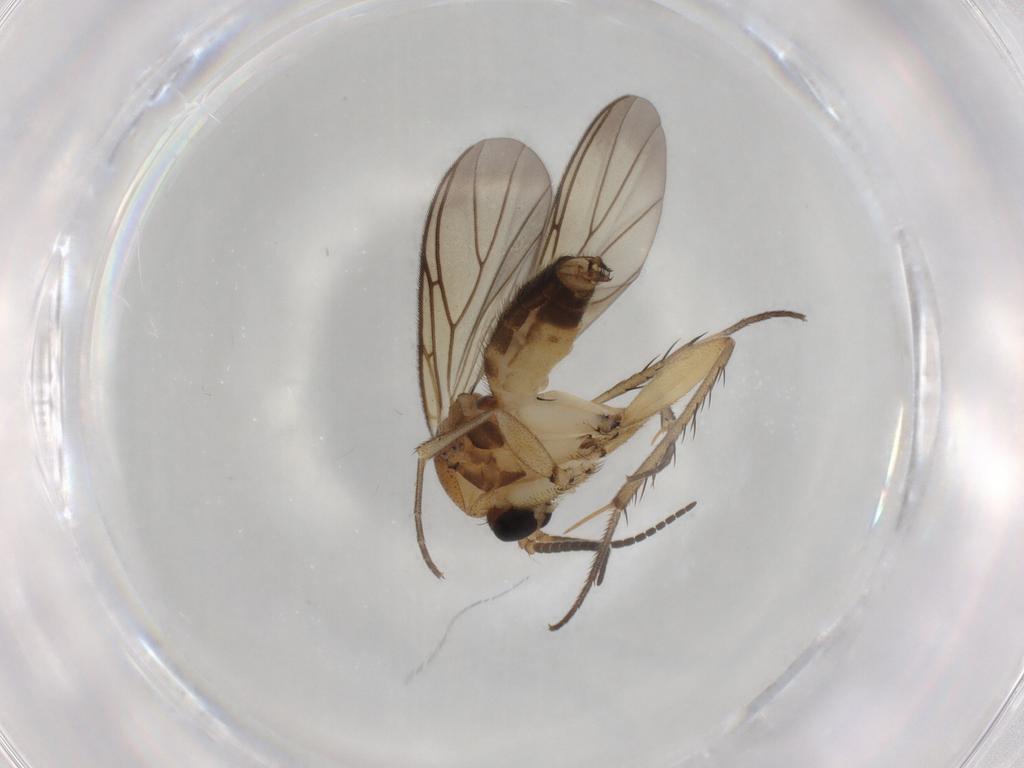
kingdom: Animalia
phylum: Arthropoda
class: Insecta
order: Diptera
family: Mycetophilidae
